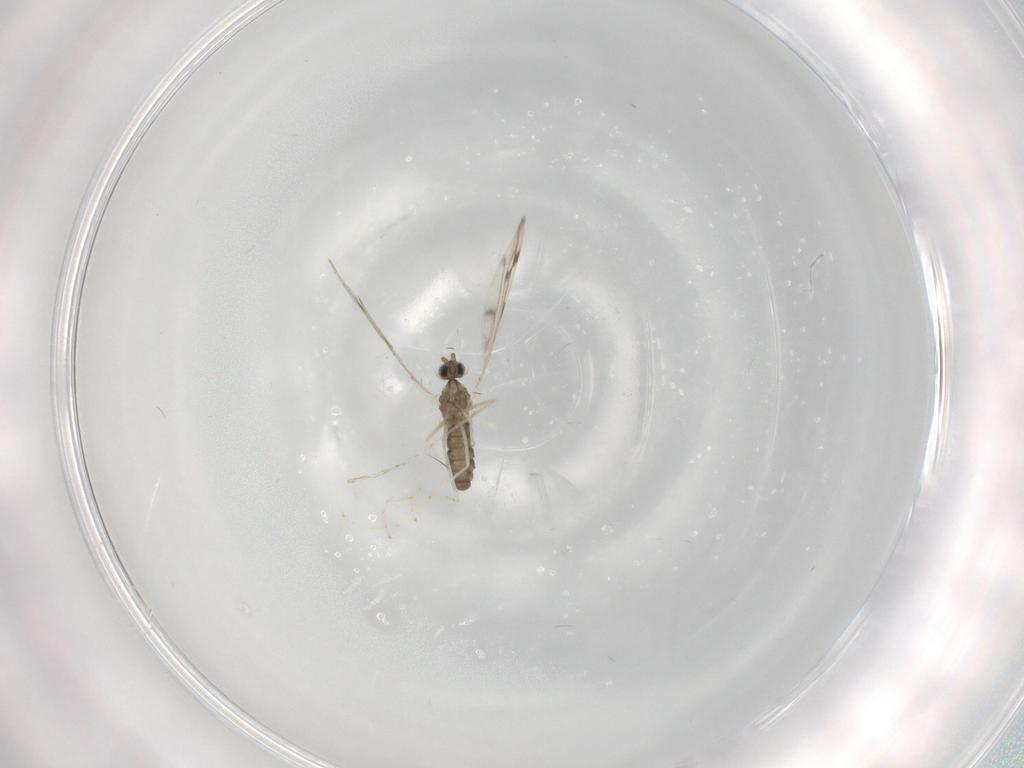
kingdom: Animalia
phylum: Arthropoda
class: Insecta
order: Diptera
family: Cecidomyiidae
